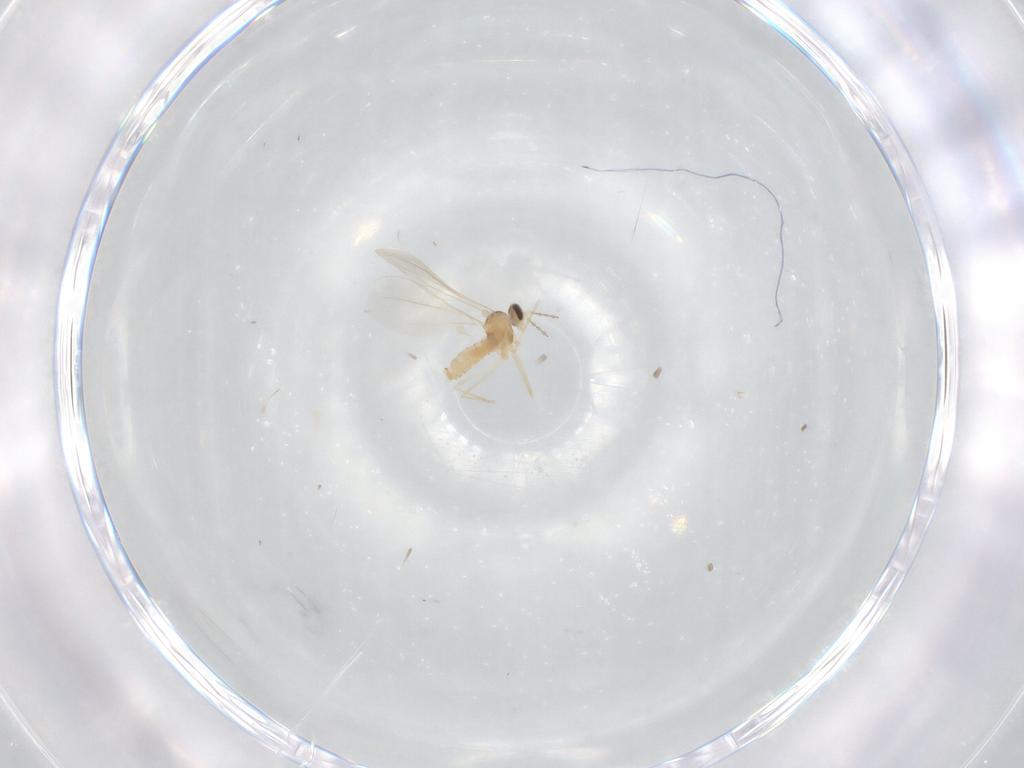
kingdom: Animalia
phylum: Arthropoda
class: Insecta
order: Diptera
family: Cecidomyiidae
